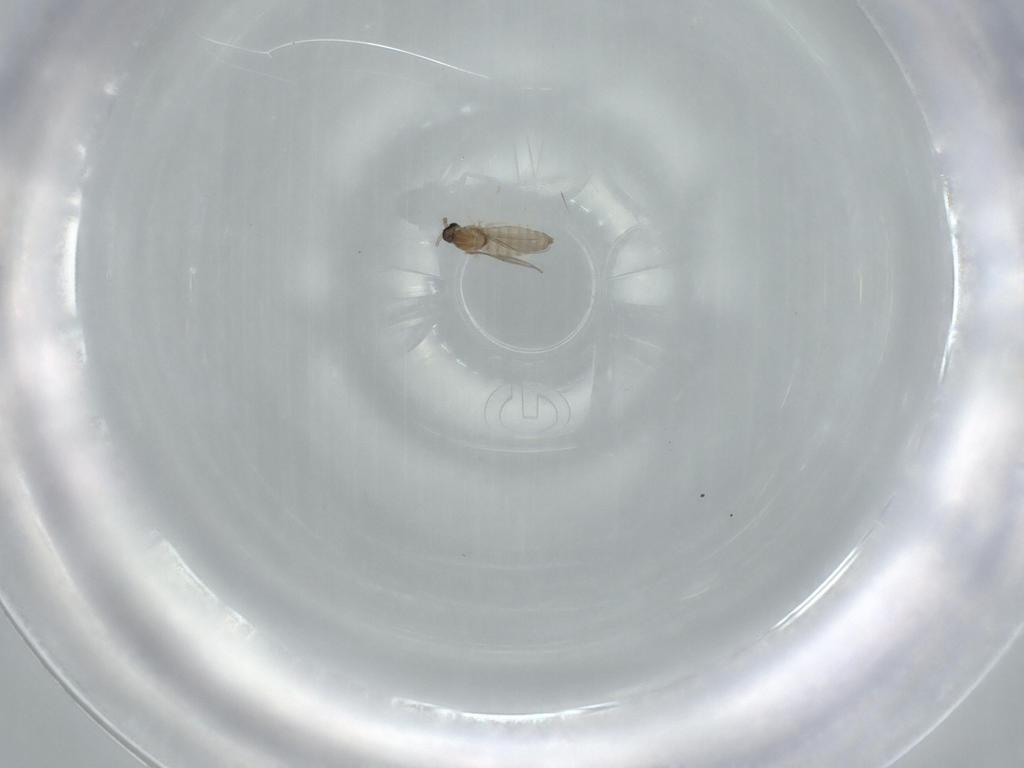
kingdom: Animalia
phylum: Arthropoda
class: Insecta
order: Diptera
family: Cecidomyiidae
